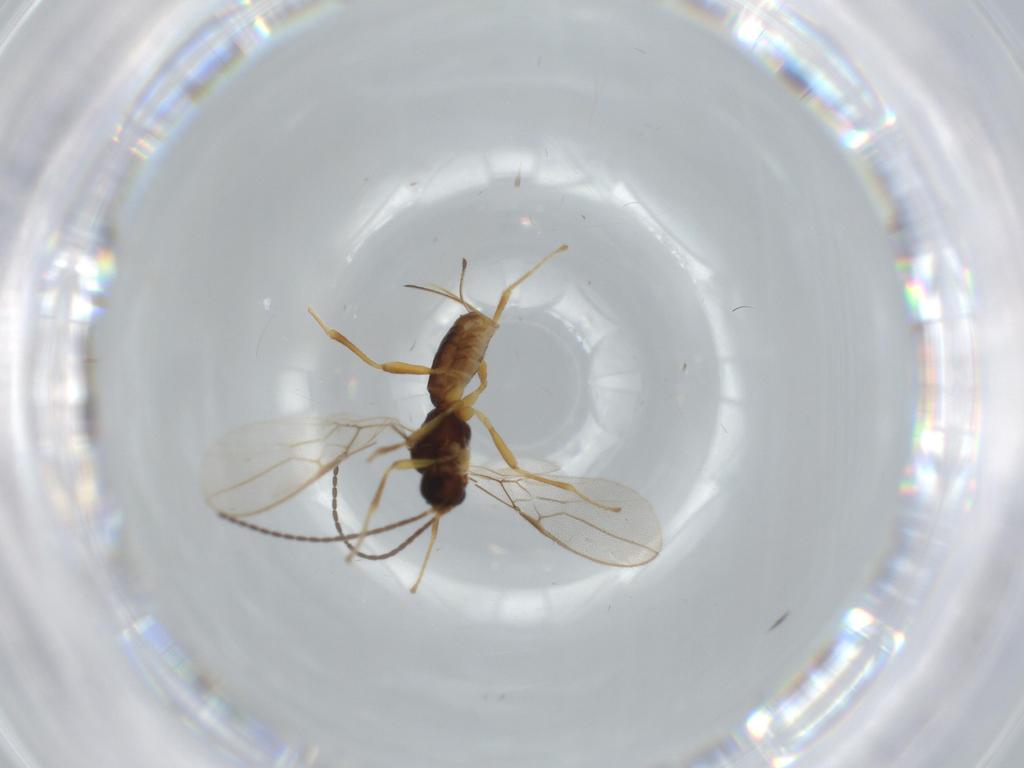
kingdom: Animalia
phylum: Arthropoda
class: Insecta
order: Hymenoptera
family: Braconidae
